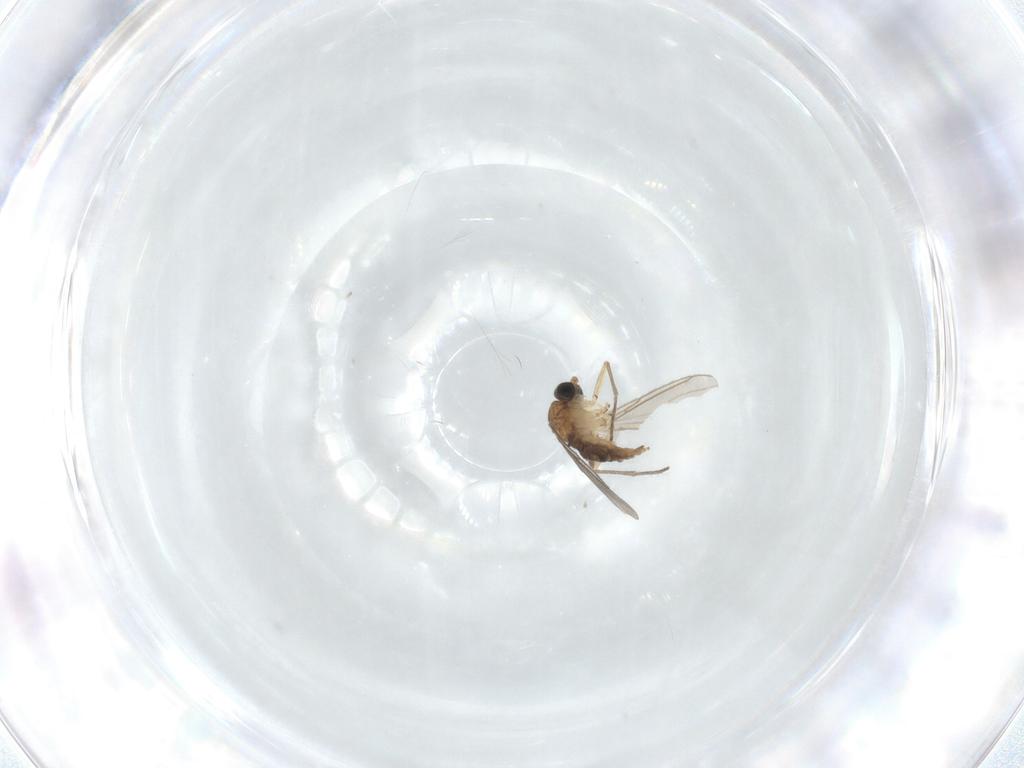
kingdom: Animalia
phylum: Arthropoda
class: Insecta
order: Diptera
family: Sciaridae
